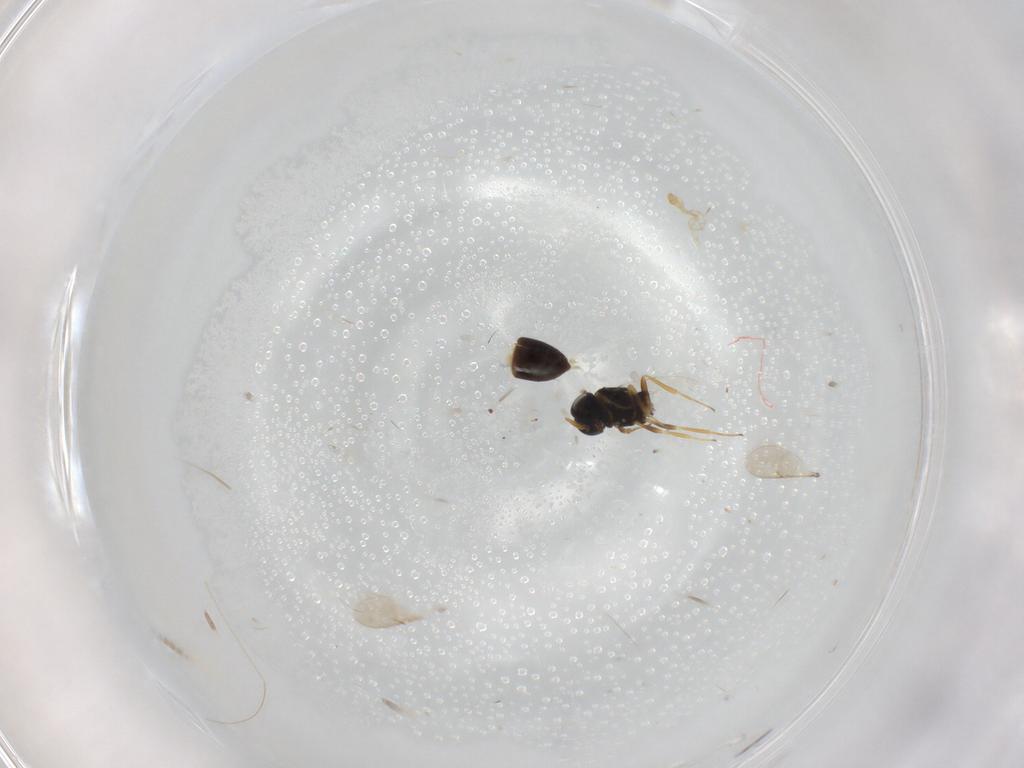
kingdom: Animalia
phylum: Arthropoda
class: Insecta
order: Hymenoptera
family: Scelionidae
